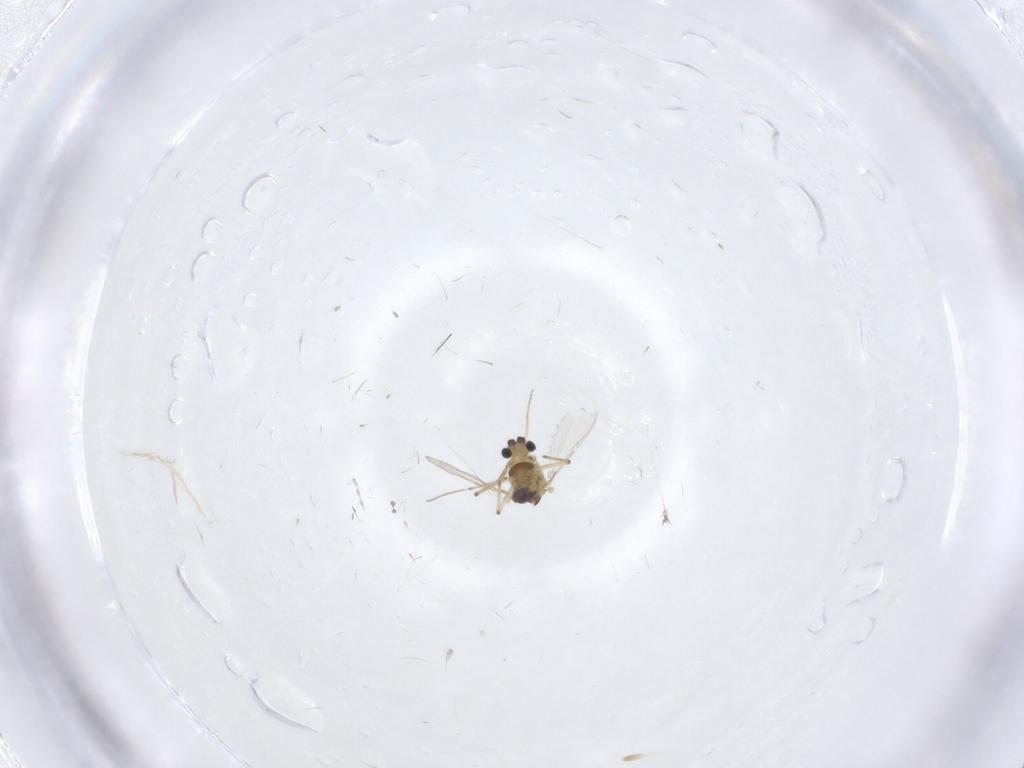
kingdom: Animalia
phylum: Arthropoda
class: Insecta
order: Diptera
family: Chironomidae
